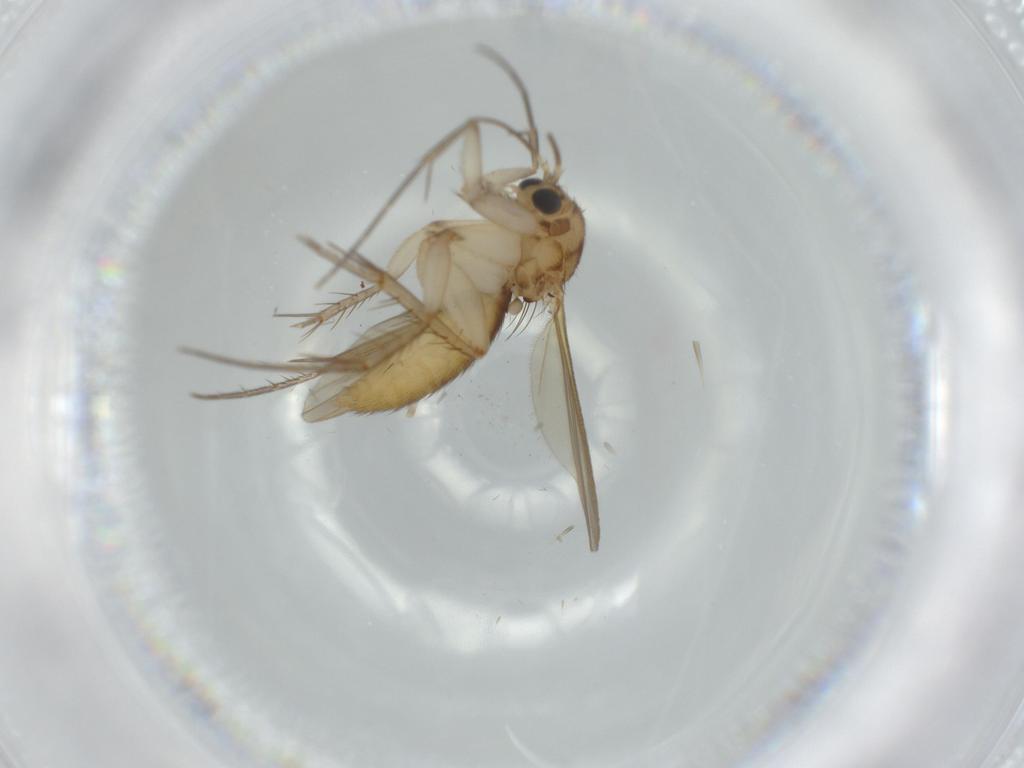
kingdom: Animalia
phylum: Arthropoda
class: Insecta
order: Diptera
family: Mycetophilidae
